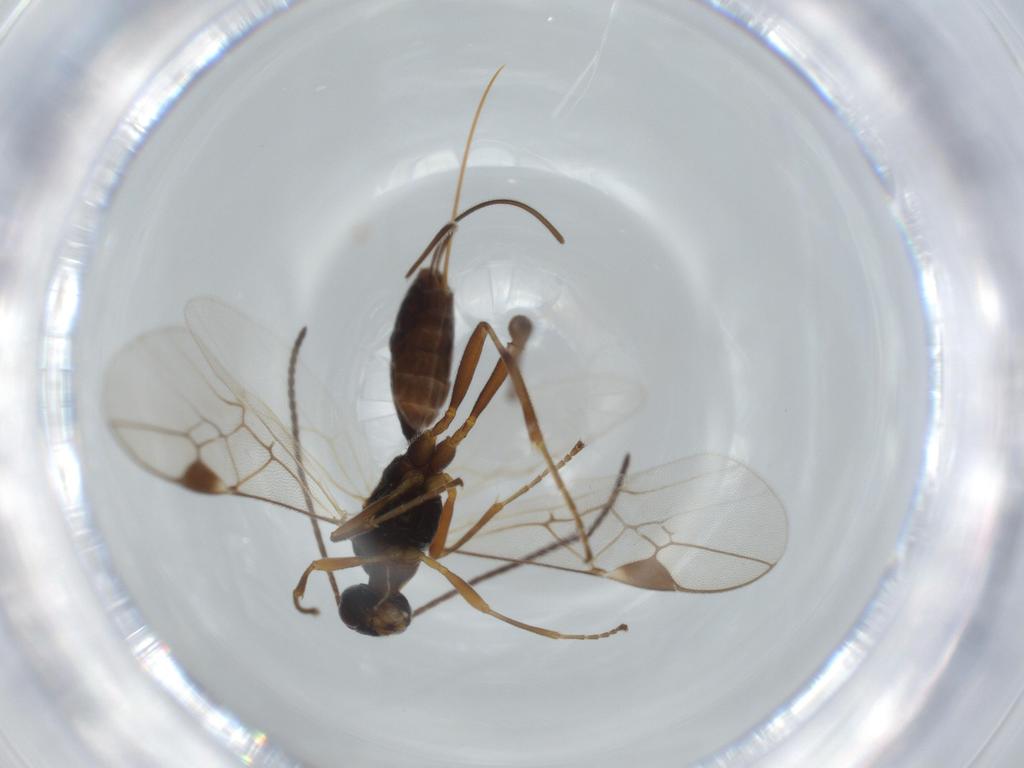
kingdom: Animalia
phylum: Arthropoda
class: Insecta
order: Hymenoptera
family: Braconidae
